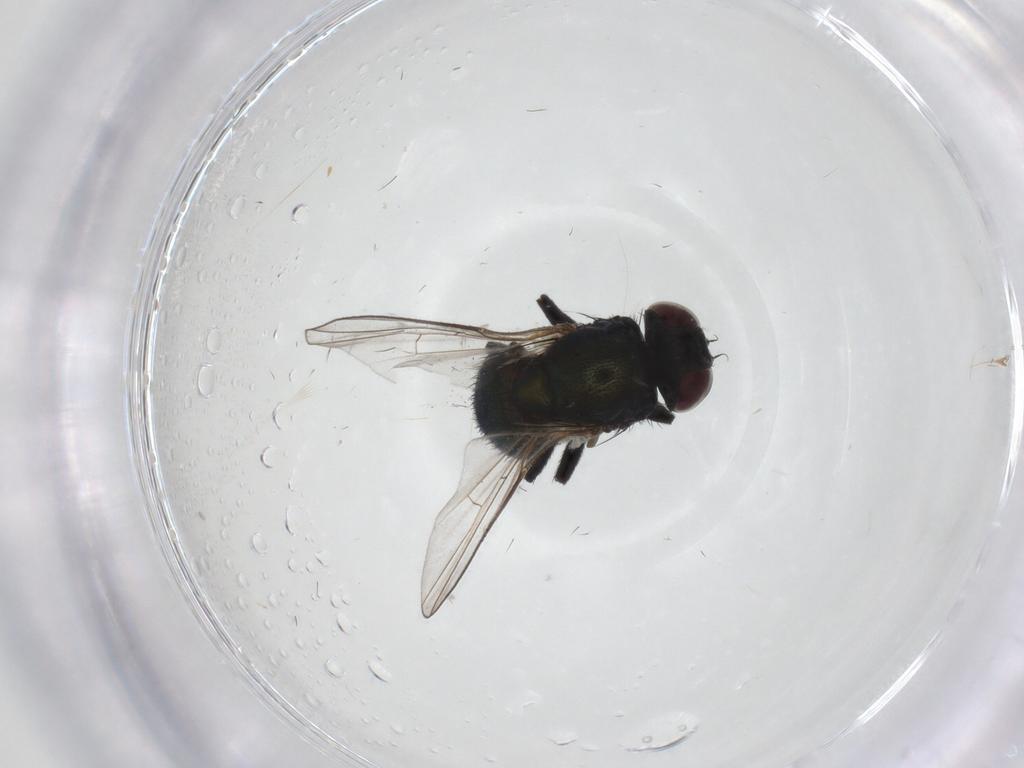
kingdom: Animalia
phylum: Arthropoda
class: Insecta
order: Diptera
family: Agromyzidae
